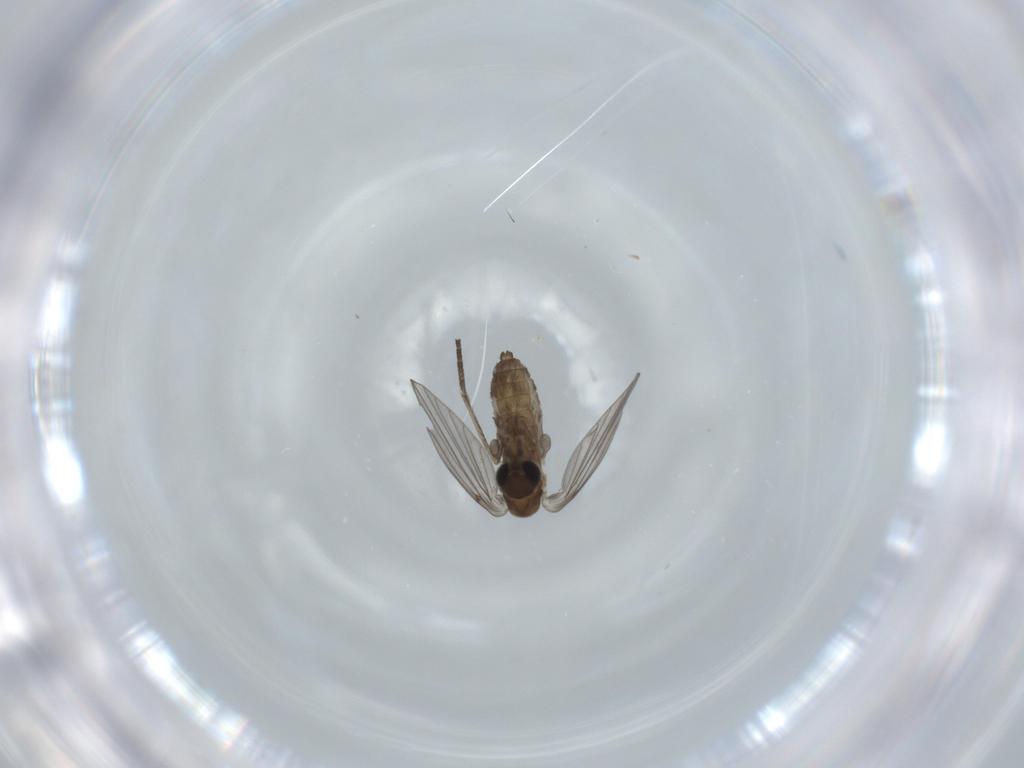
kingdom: Animalia
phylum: Arthropoda
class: Insecta
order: Diptera
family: Psychodidae
